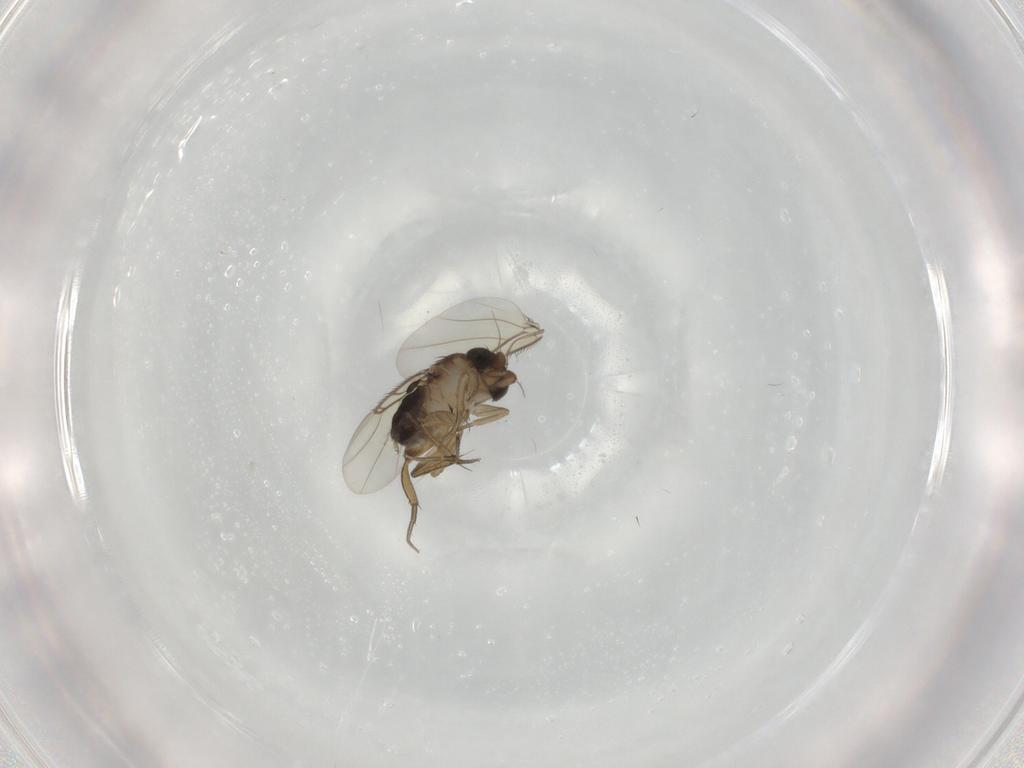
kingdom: Animalia
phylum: Arthropoda
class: Insecta
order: Diptera
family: Phoridae
